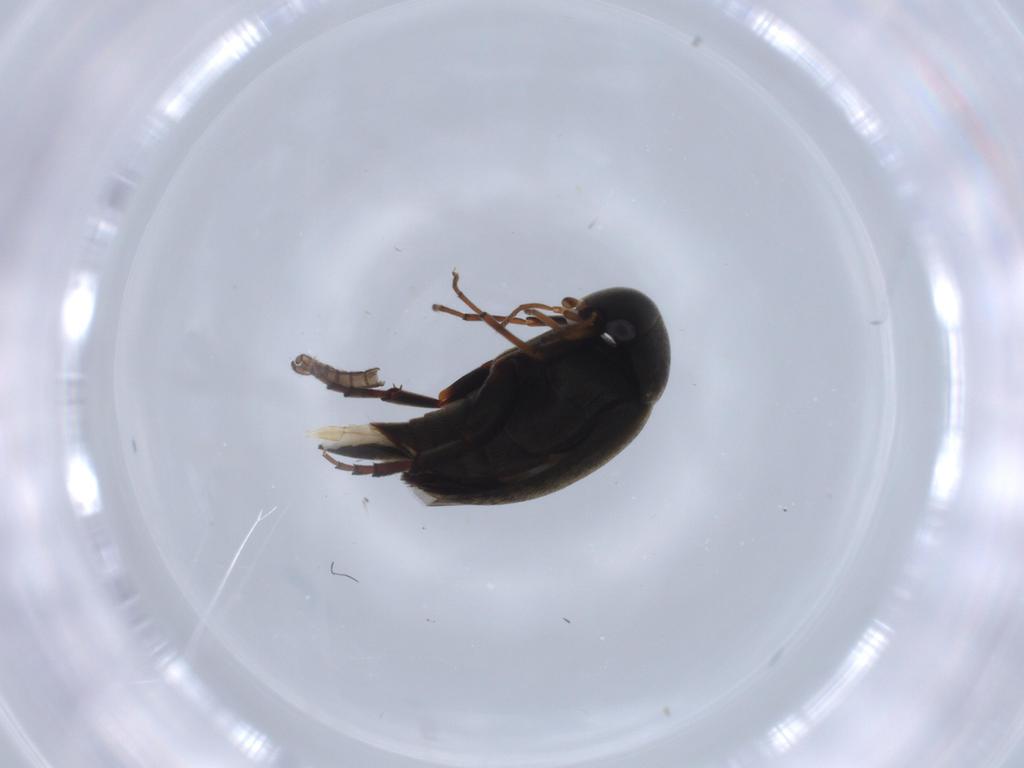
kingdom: Animalia
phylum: Arthropoda
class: Insecta
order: Coleoptera
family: Mordellidae
